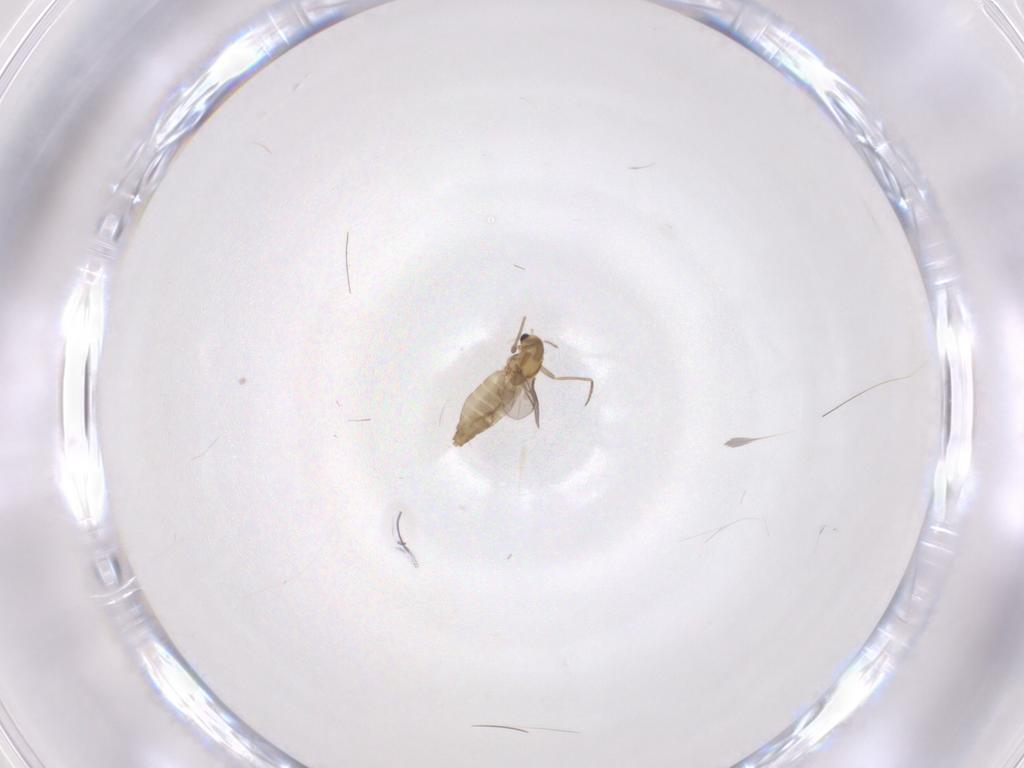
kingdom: Animalia
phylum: Arthropoda
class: Insecta
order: Diptera
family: Chironomidae
